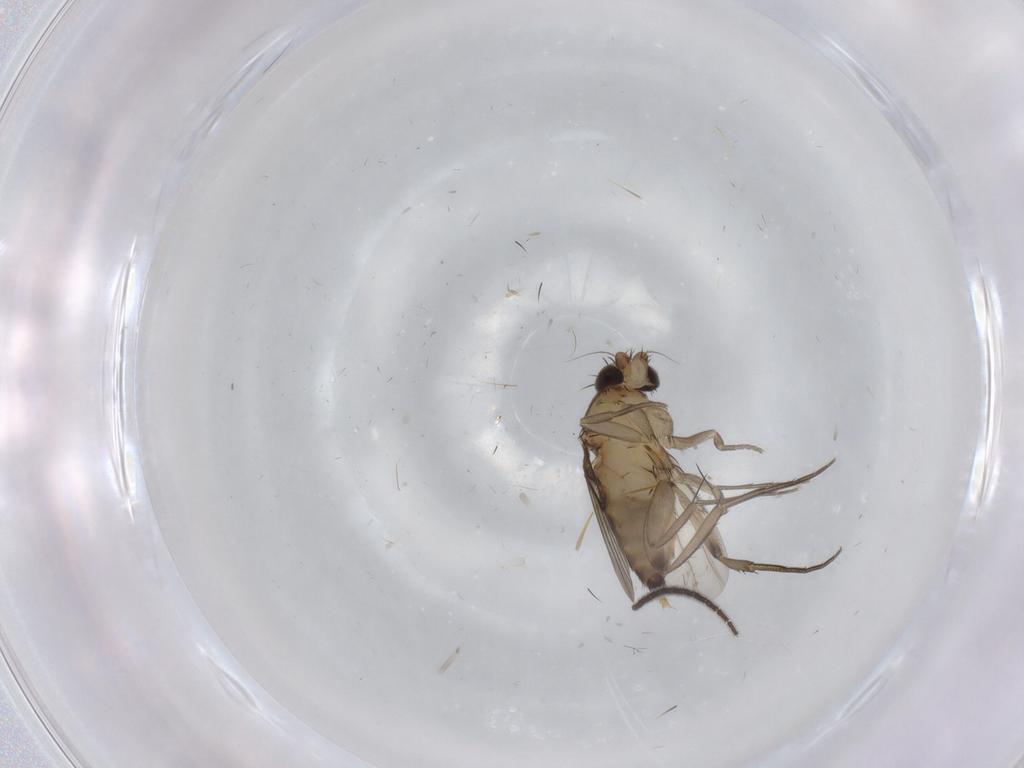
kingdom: Animalia
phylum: Arthropoda
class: Insecta
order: Diptera
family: Sciaridae
